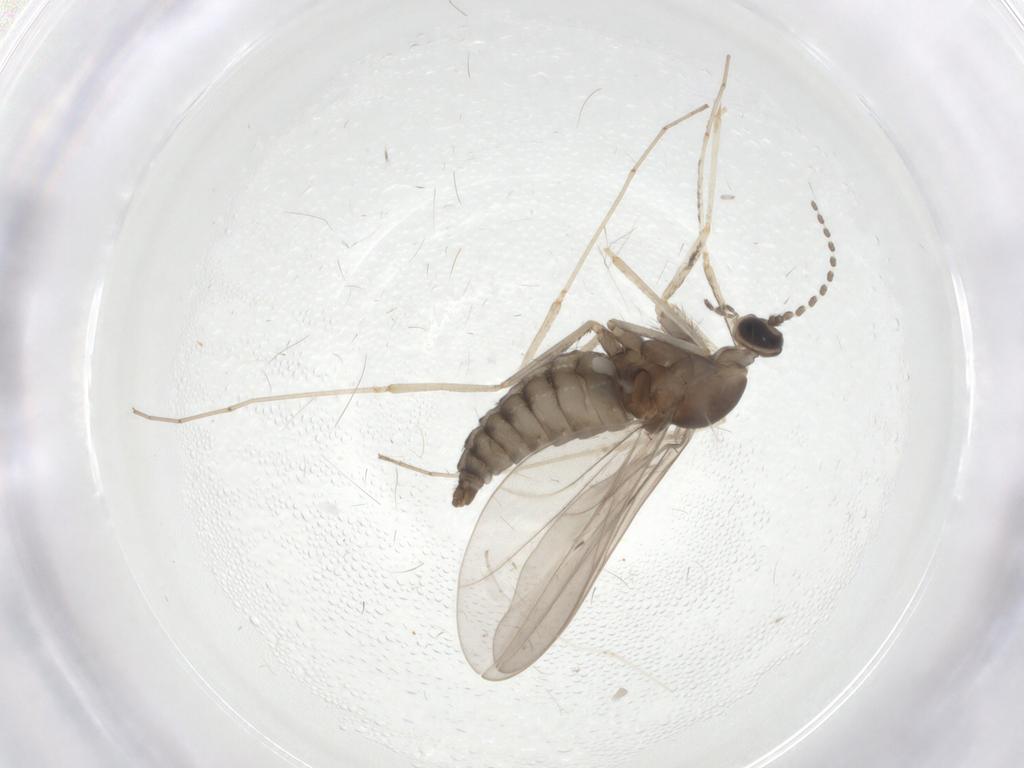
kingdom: Animalia
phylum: Arthropoda
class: Insecta
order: Diptera
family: Cecidomyiidae
